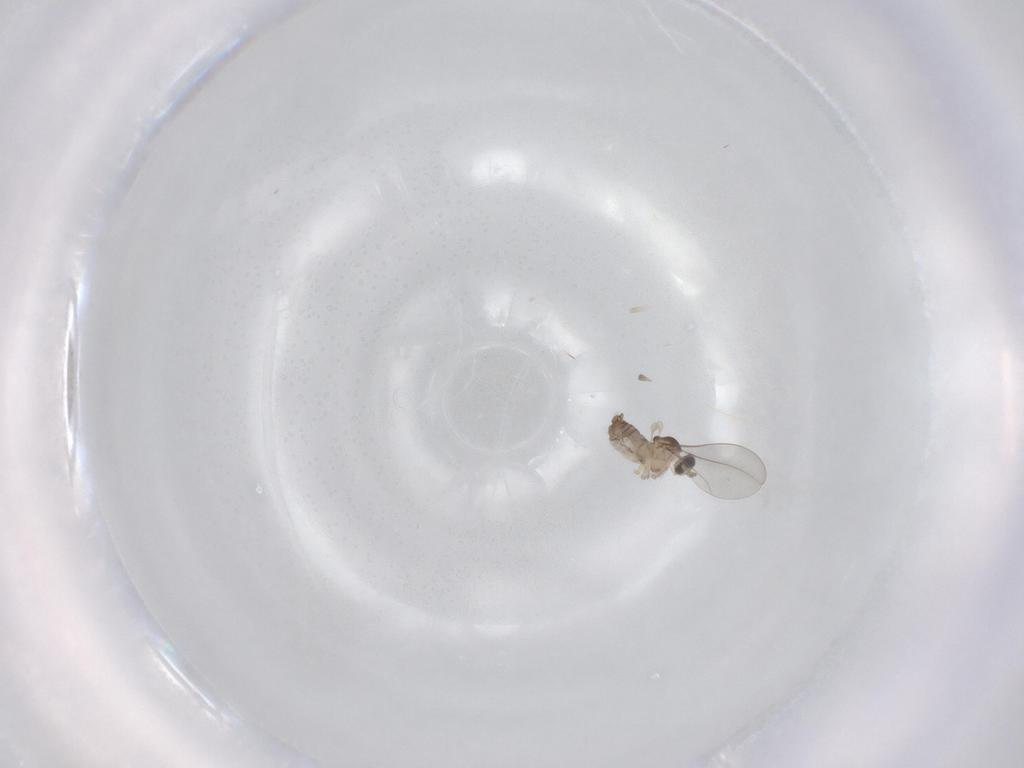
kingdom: Animalia
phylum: Arthropoda
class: Insecta
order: Diptera
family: Cecidomyiidae
